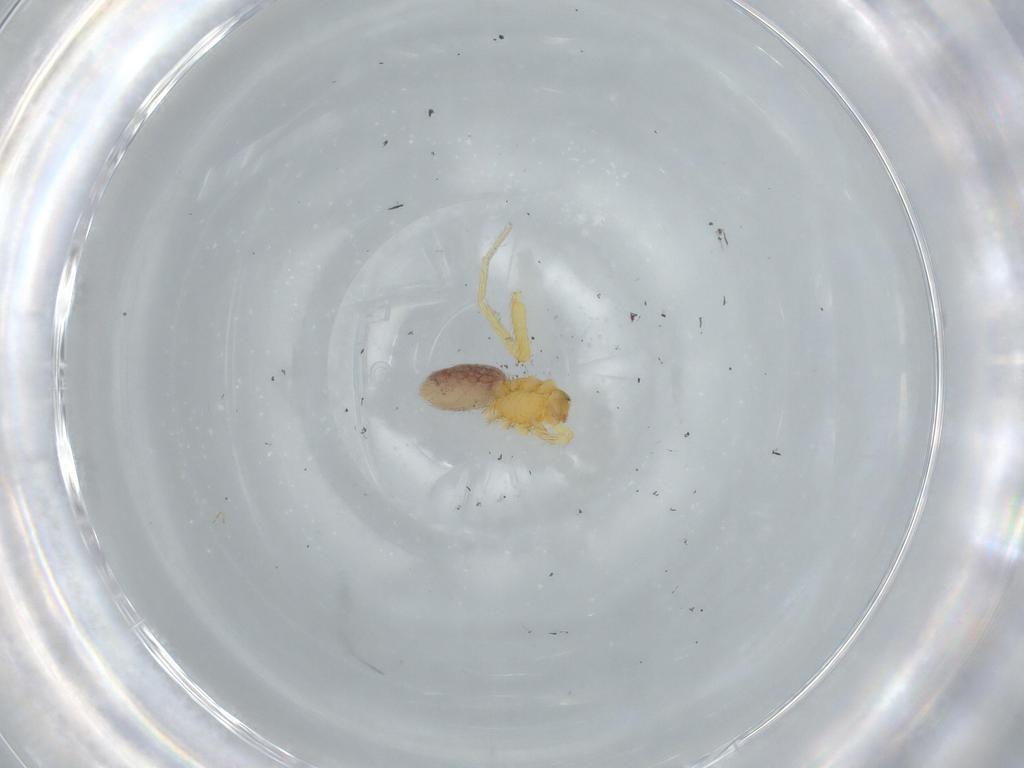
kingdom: Animalia
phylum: Arthropoda
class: Arachnida
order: Araneae
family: Oonopidae
